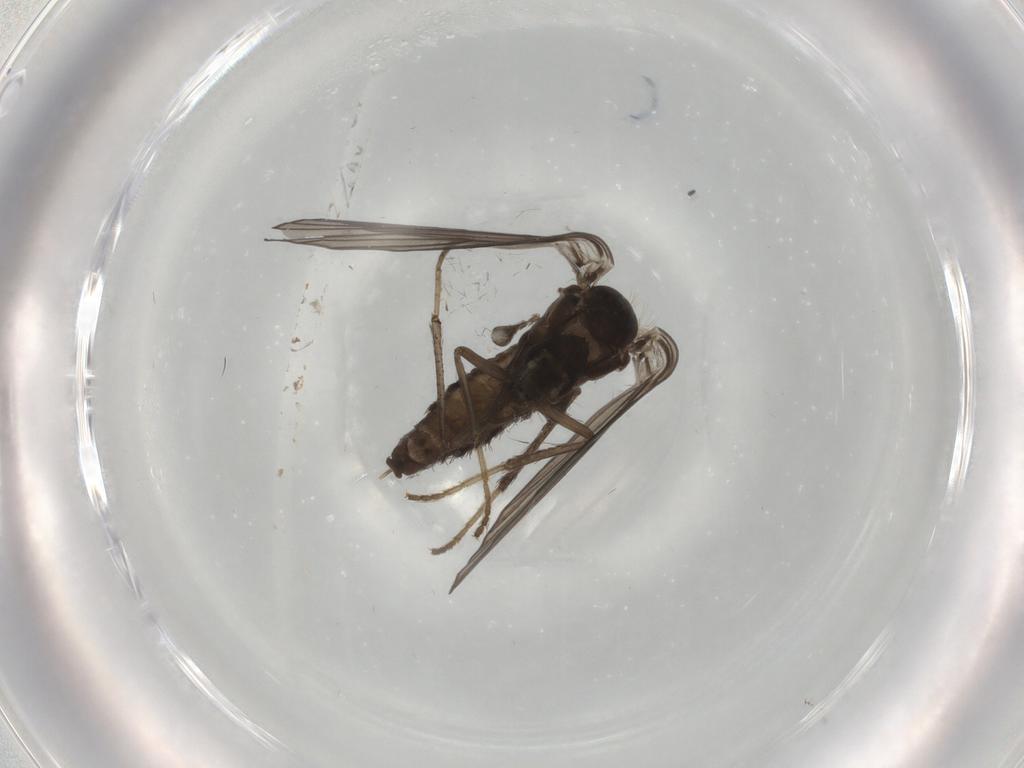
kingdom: Animalia
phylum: Arthropoda
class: Insecta
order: Diptera
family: Psychodidae
